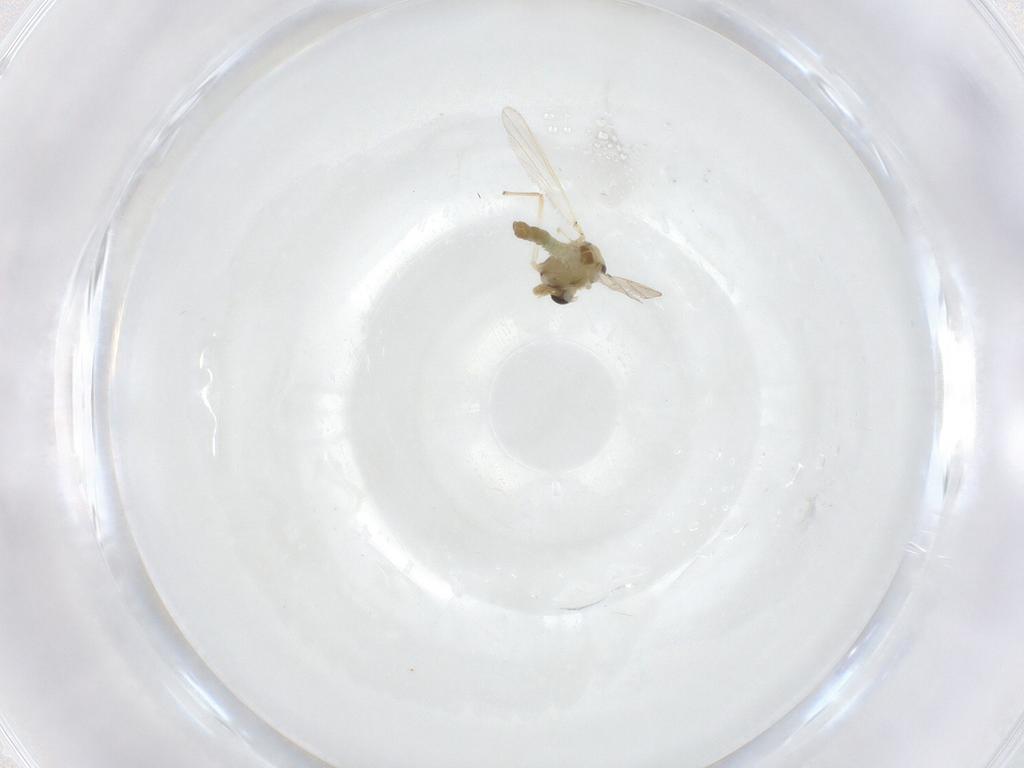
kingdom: Animalia
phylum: Arthropoda
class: Insecta
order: Diptera
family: Chironomidae
